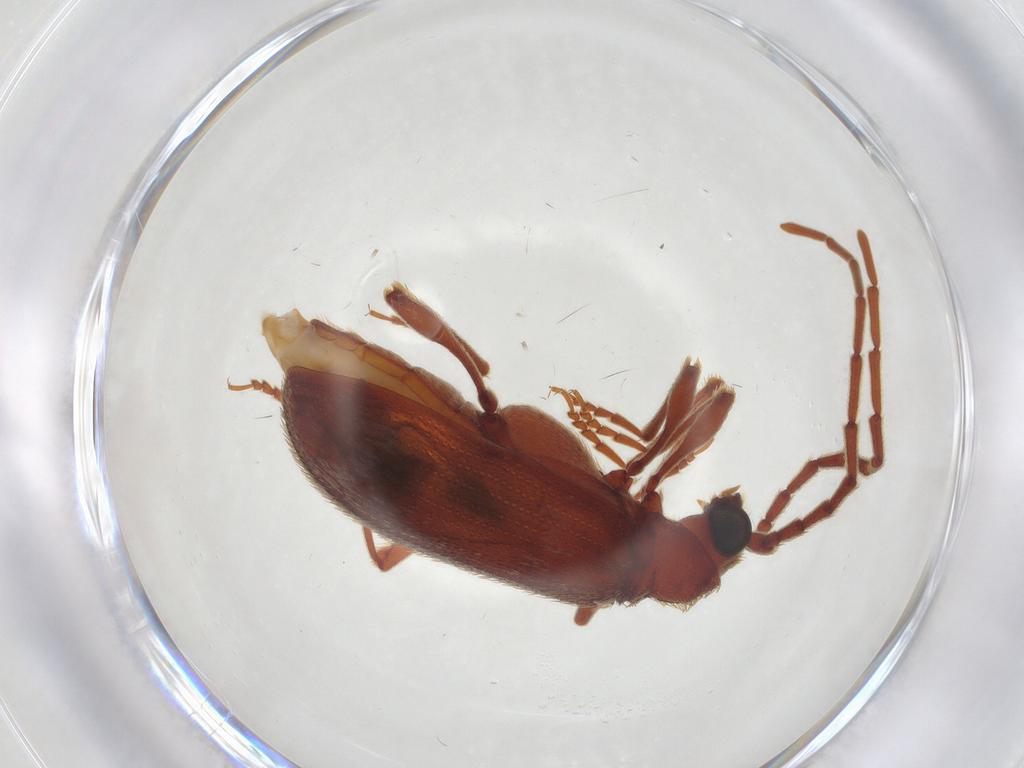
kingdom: Animalia
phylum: Arthropoda
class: Insecta
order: Coleoptera
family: Ptinidae
